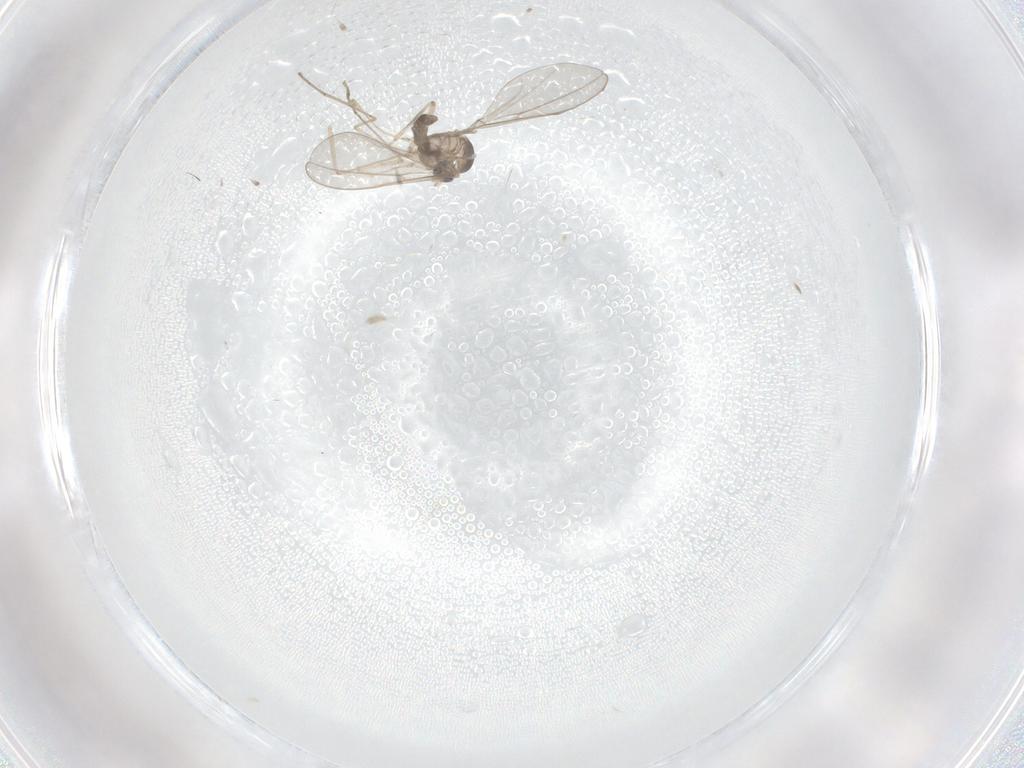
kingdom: Animalia
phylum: Arthropoda
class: Insecta
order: Diptera
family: Cecidomyiidae
